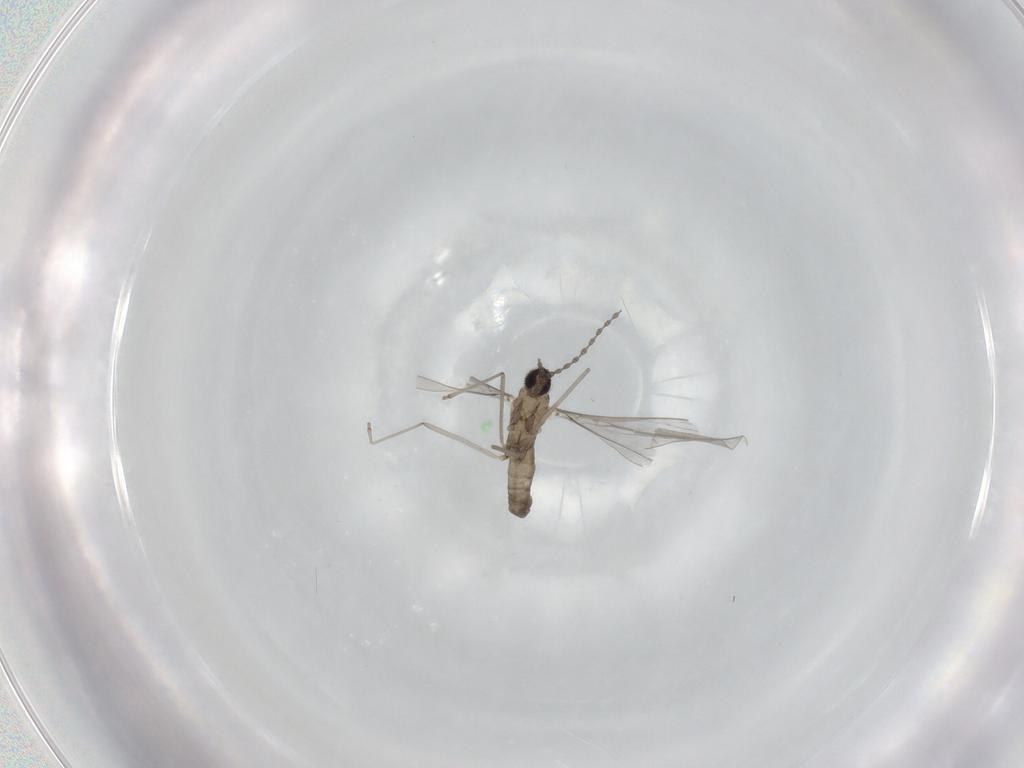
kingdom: Animalia
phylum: Arthropoda
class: Insecta
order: Diptera
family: Cecidomyiidae
